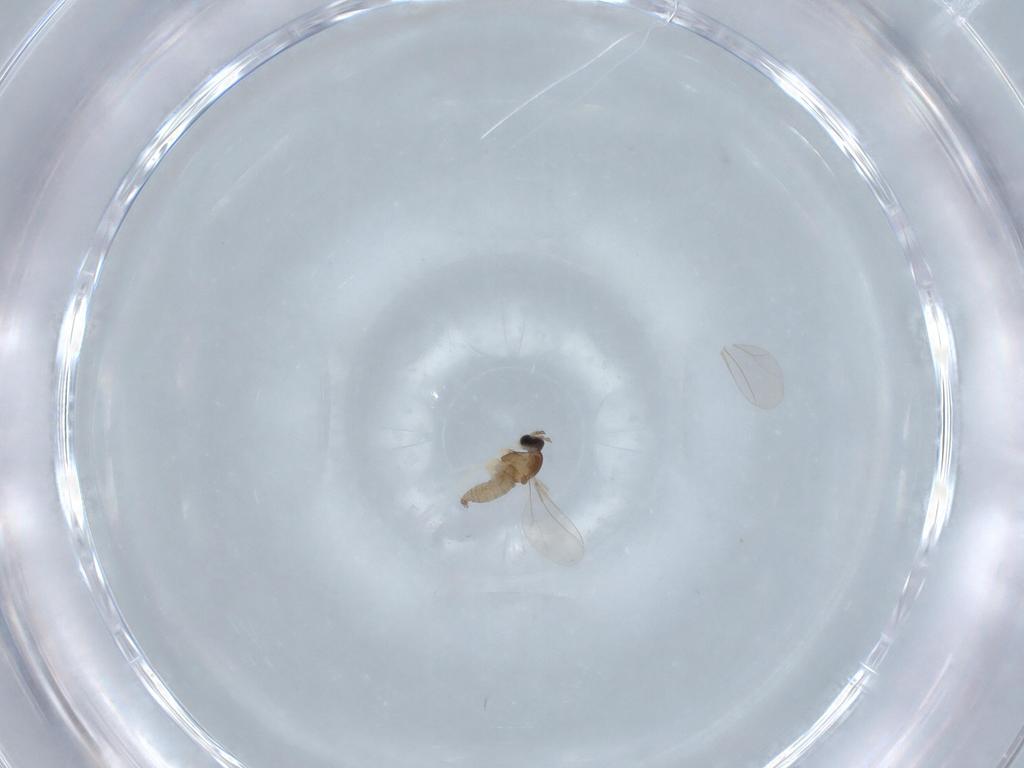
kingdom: Animalia
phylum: Arthropoda
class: Insecta
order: Diptera
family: Cecidomyiidae
